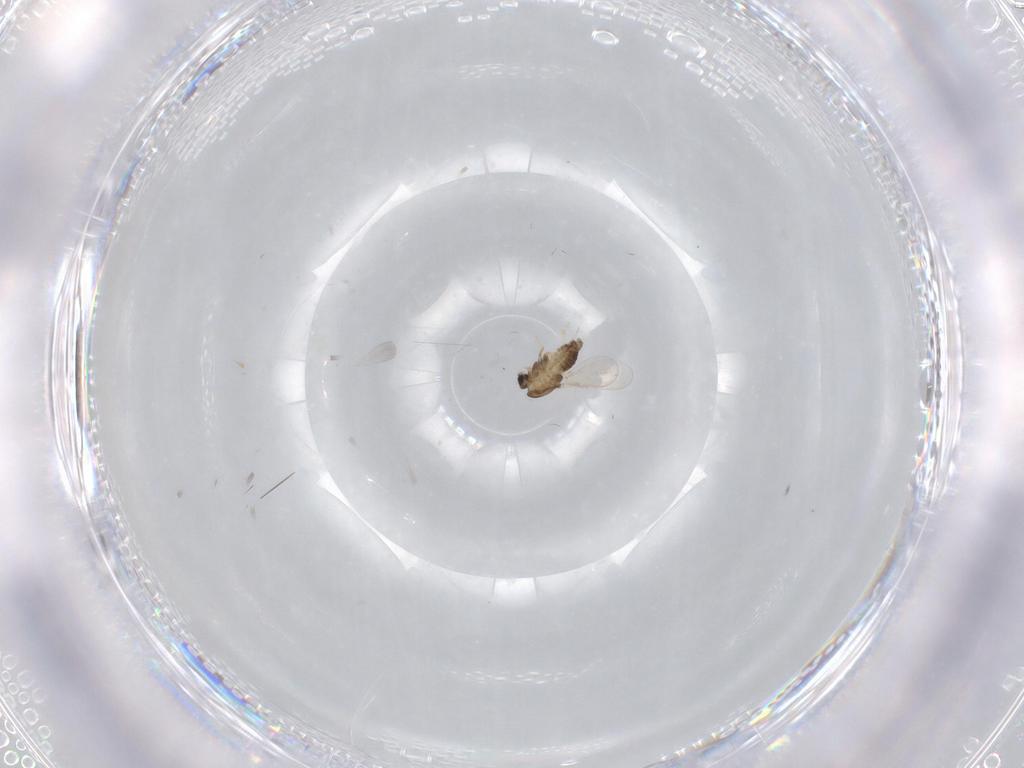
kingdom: Animalia
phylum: Arthropoda
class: Insecta
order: Diptera
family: Chironomidae
